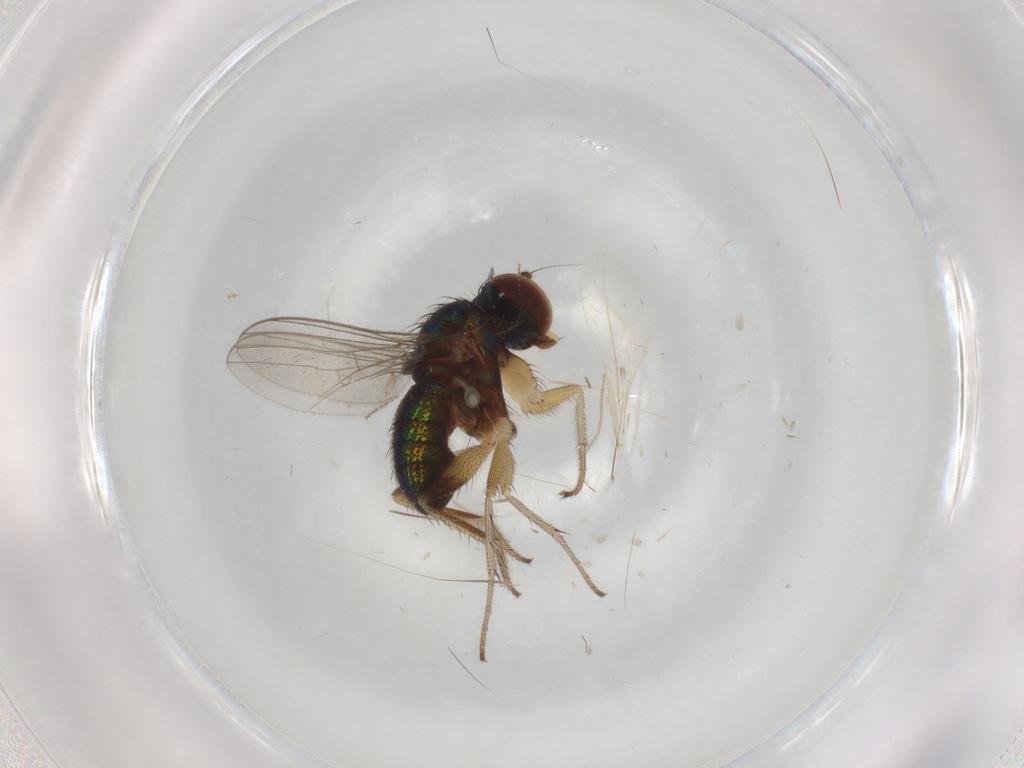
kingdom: Animalia
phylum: Arthropoda
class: Insecta
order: Diptera
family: Dolichopodidae
